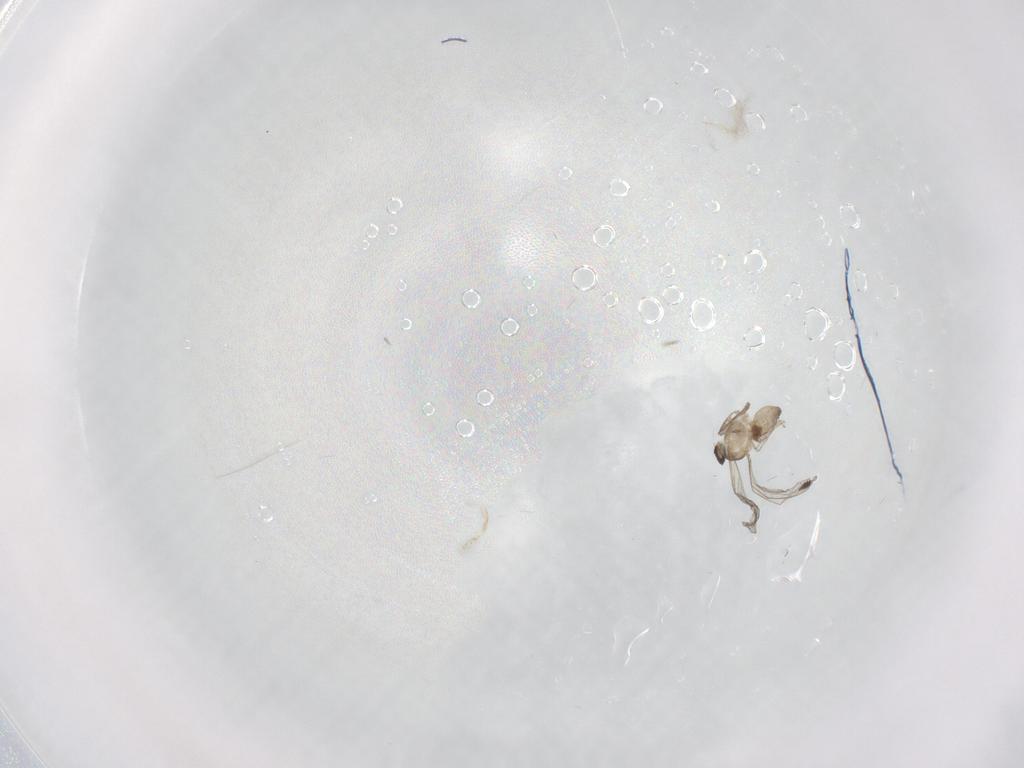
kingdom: Animalia
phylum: Arthropoda
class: Insecta
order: Diptera
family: Cecidomyiidae
